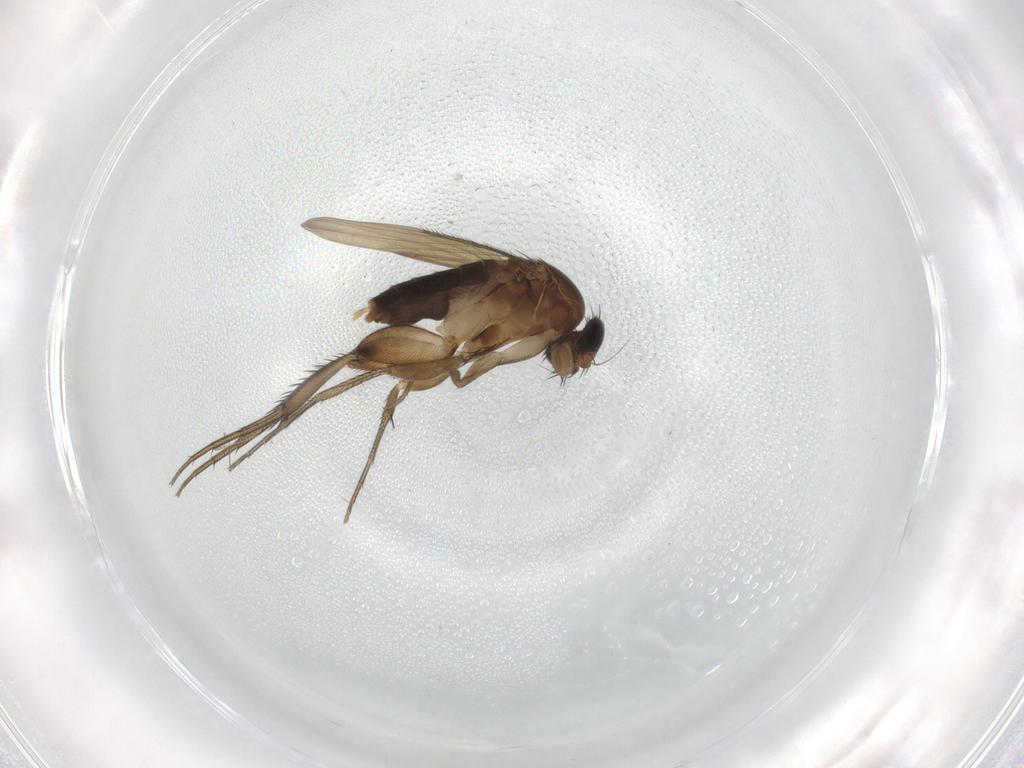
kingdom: Animalia
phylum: Arthropoda
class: Insecta
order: Diptera
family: Phoridae
